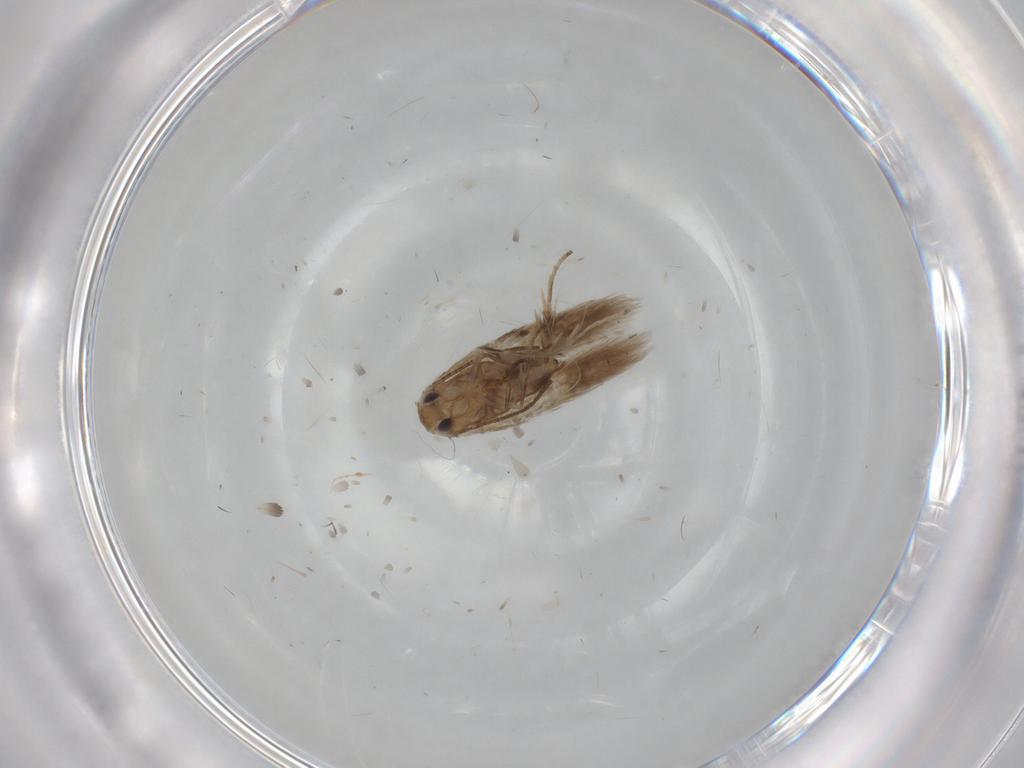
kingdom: Animalia
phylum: Arthropoda
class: Insecta
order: Lepidoptera
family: Nymphalidae
